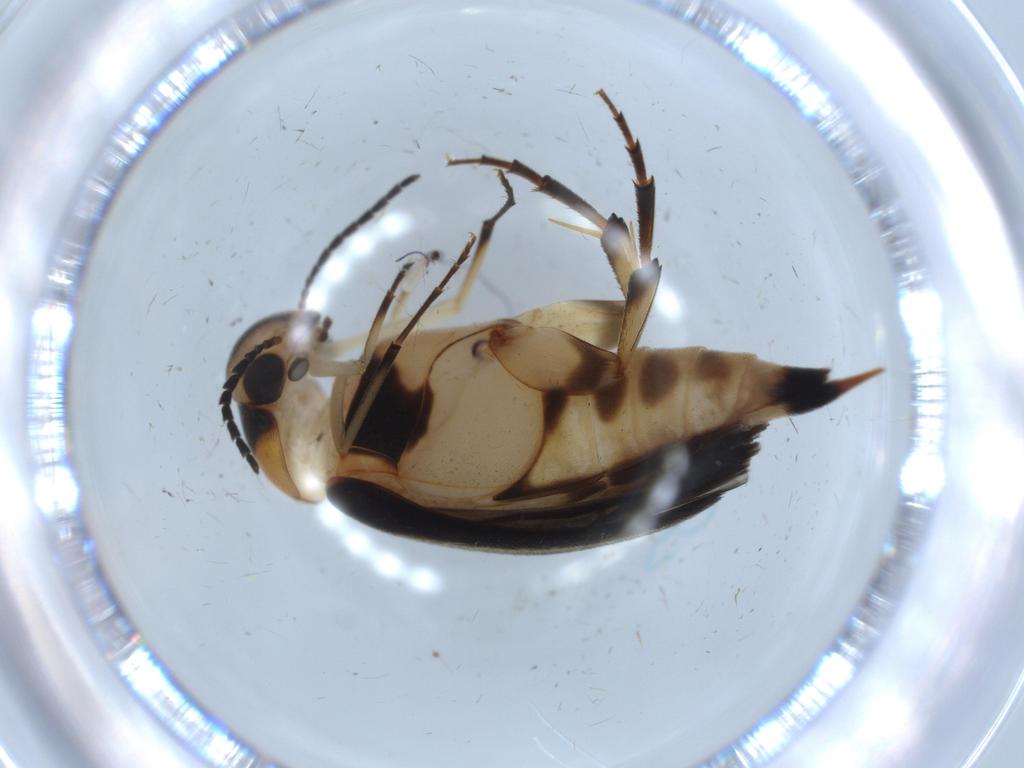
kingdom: Animalia
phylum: Arthropoda
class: Insecta
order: Coleoptera
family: Mordellidae
